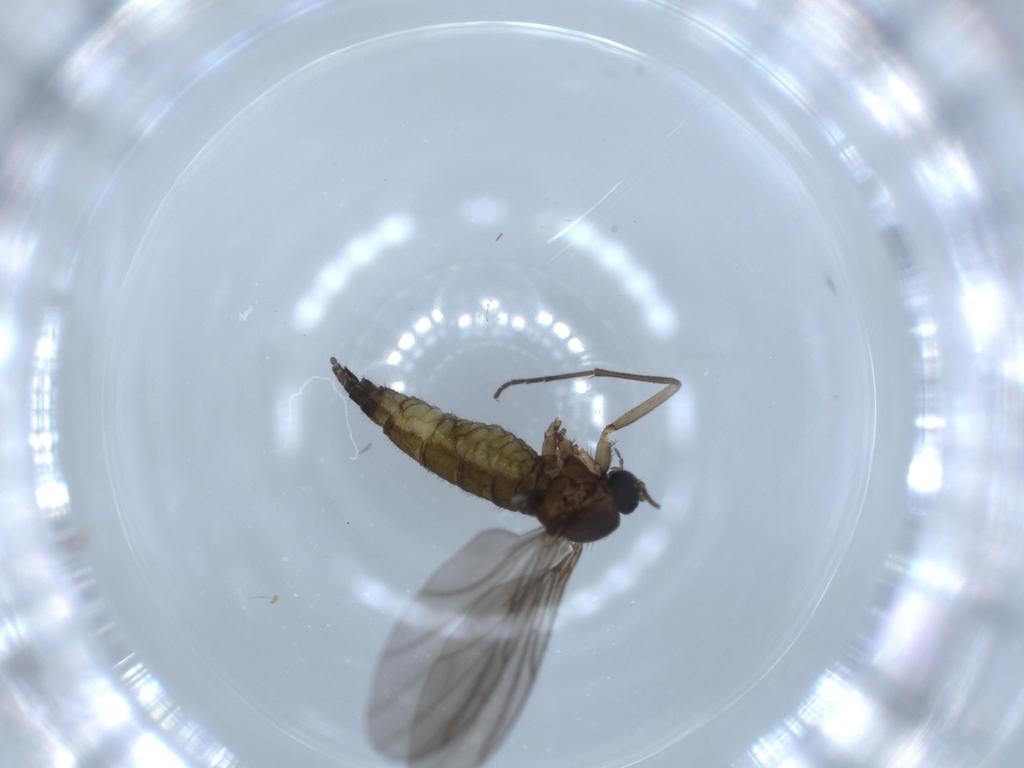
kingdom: Animalia
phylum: Arthropoda
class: Insecta
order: Diptera
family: Sciaridae
